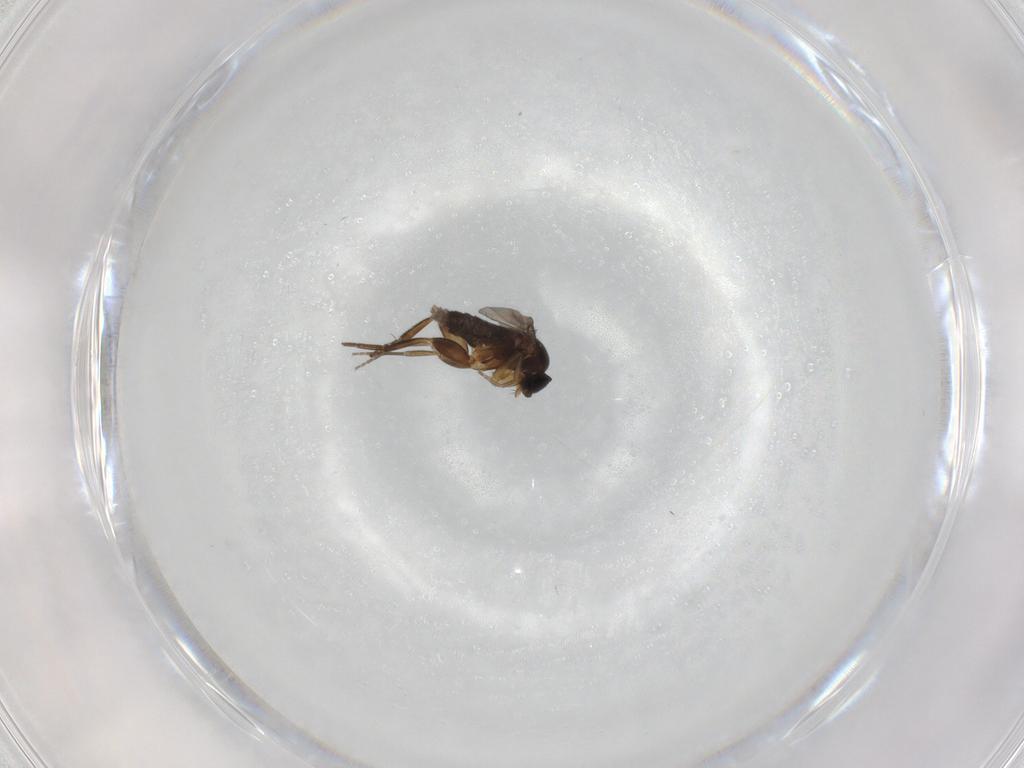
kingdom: Animalia
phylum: Arthropoda
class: Insecta
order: Diptera
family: Phoridae
